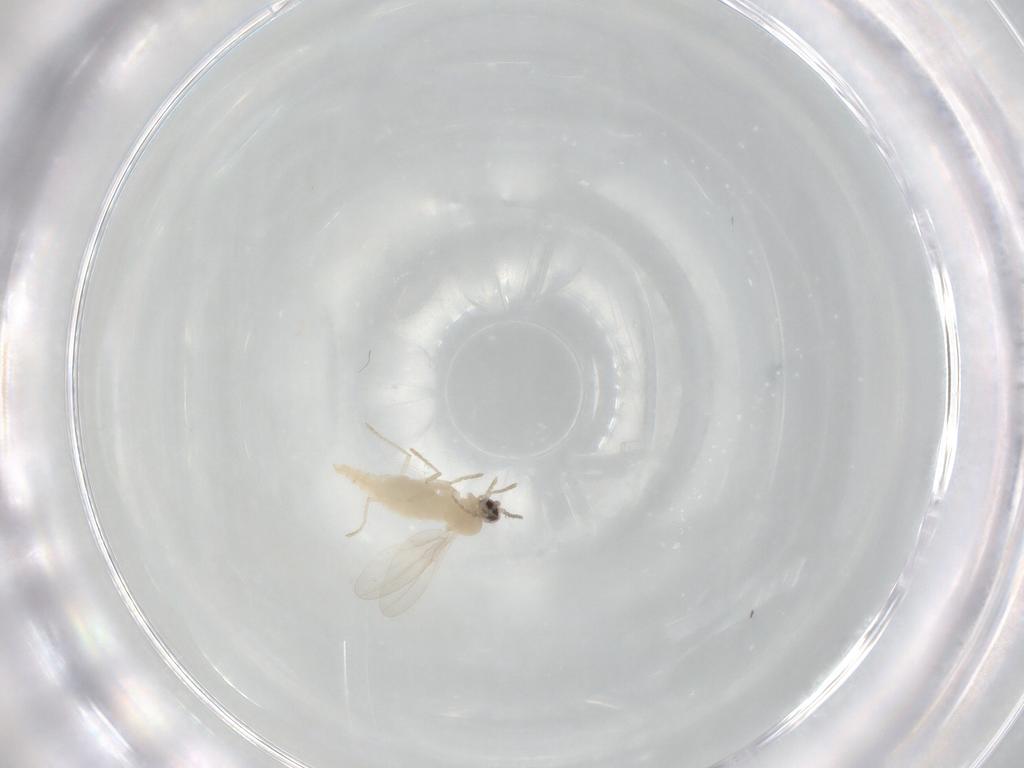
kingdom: Animalia
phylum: Arthropoda
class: Insecta
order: Diptera
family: Cecidomyiidae
